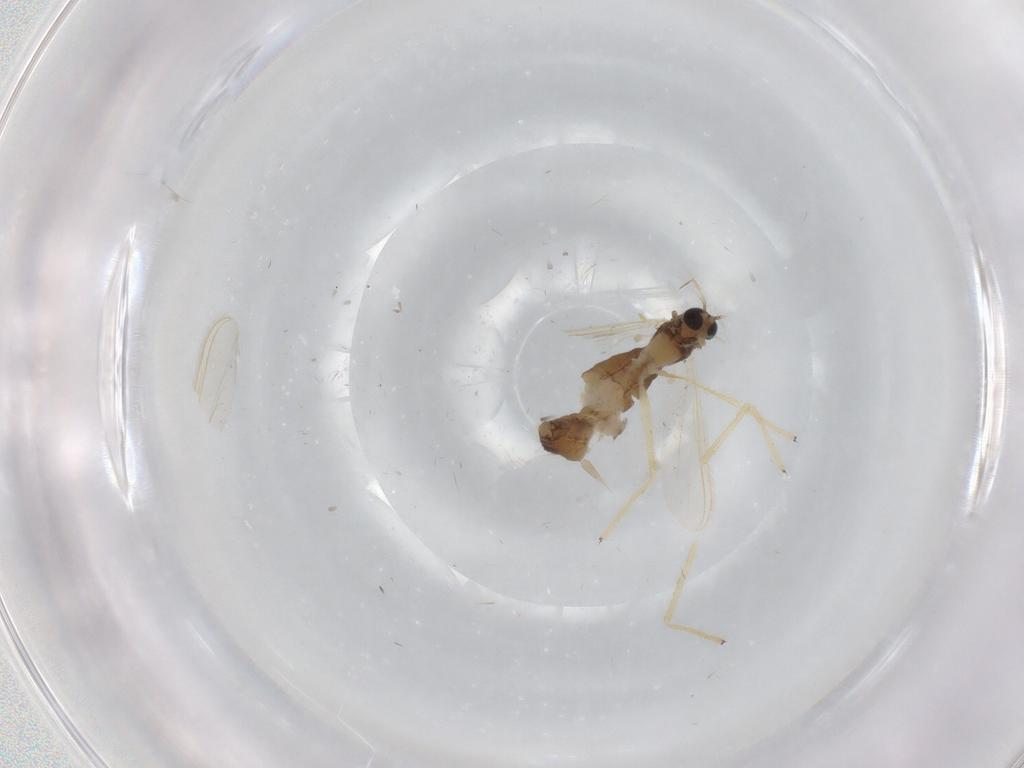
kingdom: Animalia
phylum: Arthropoda
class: Insecta
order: Diptera
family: Chironomidae
